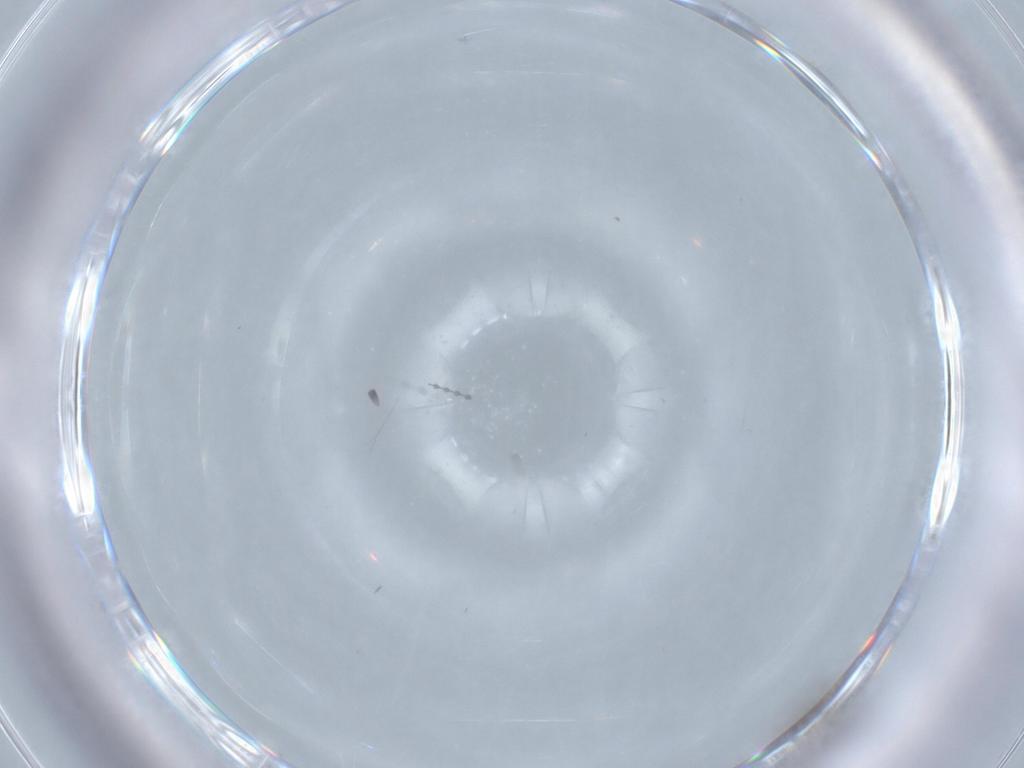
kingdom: Animalia
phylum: Arthropoda
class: Insecta
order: Diptera
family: Cecidomyiidae
